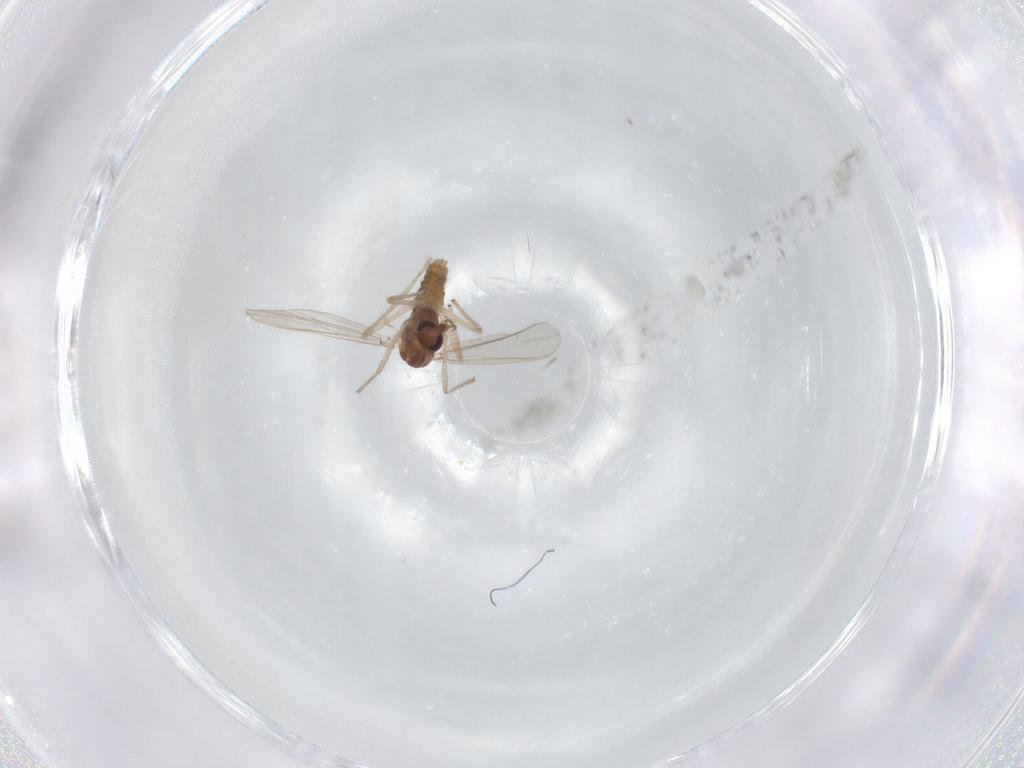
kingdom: Animalia
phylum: Arthropoda
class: Insecta
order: Diptera
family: Chironomidae
